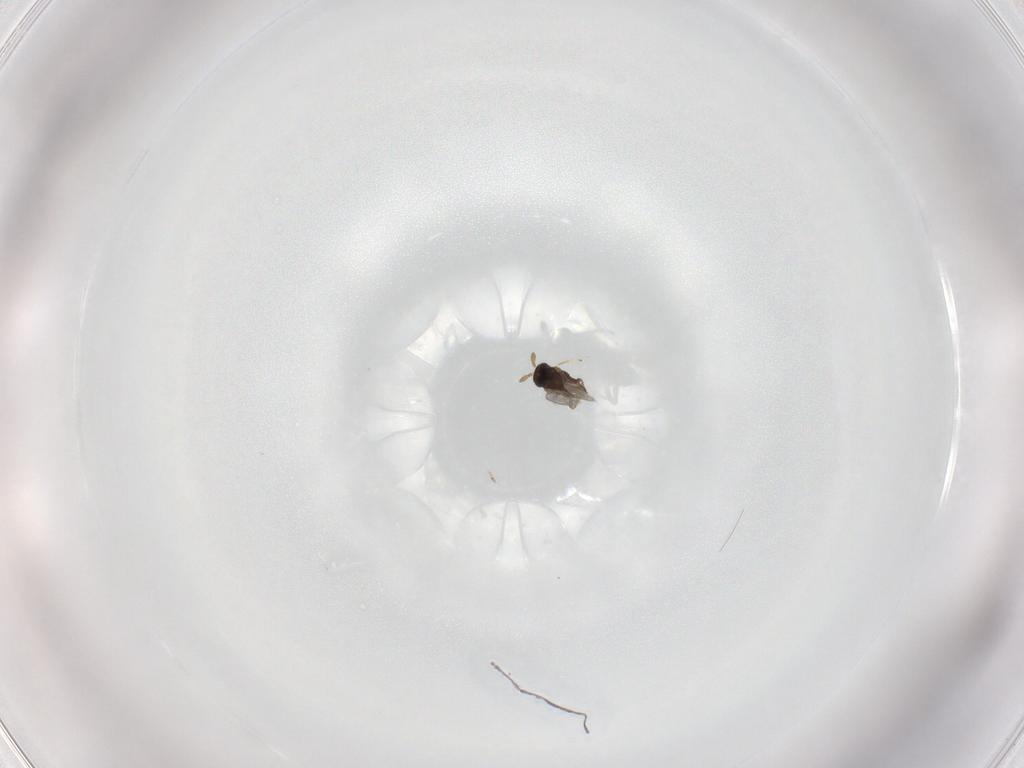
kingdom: Animalia
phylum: Arthropoda
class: Insecta
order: Hymenoptera
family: Encyrtidae
